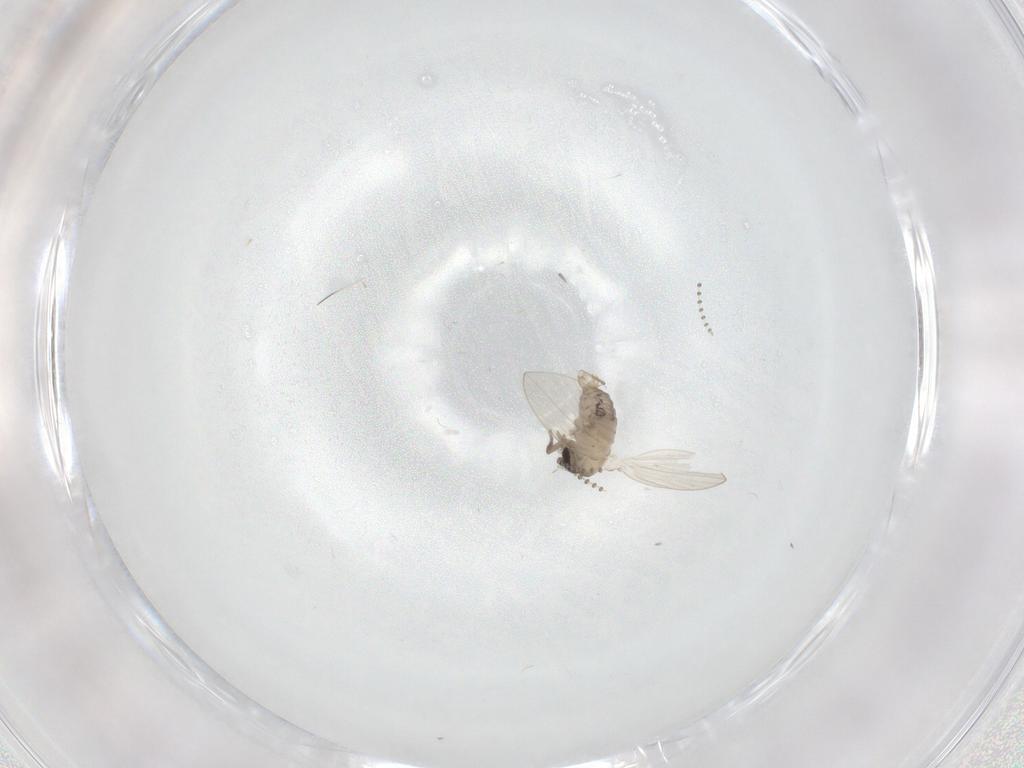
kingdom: Animalia
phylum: Arthropoda
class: Insecta
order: Diptera
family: Psychodidae
